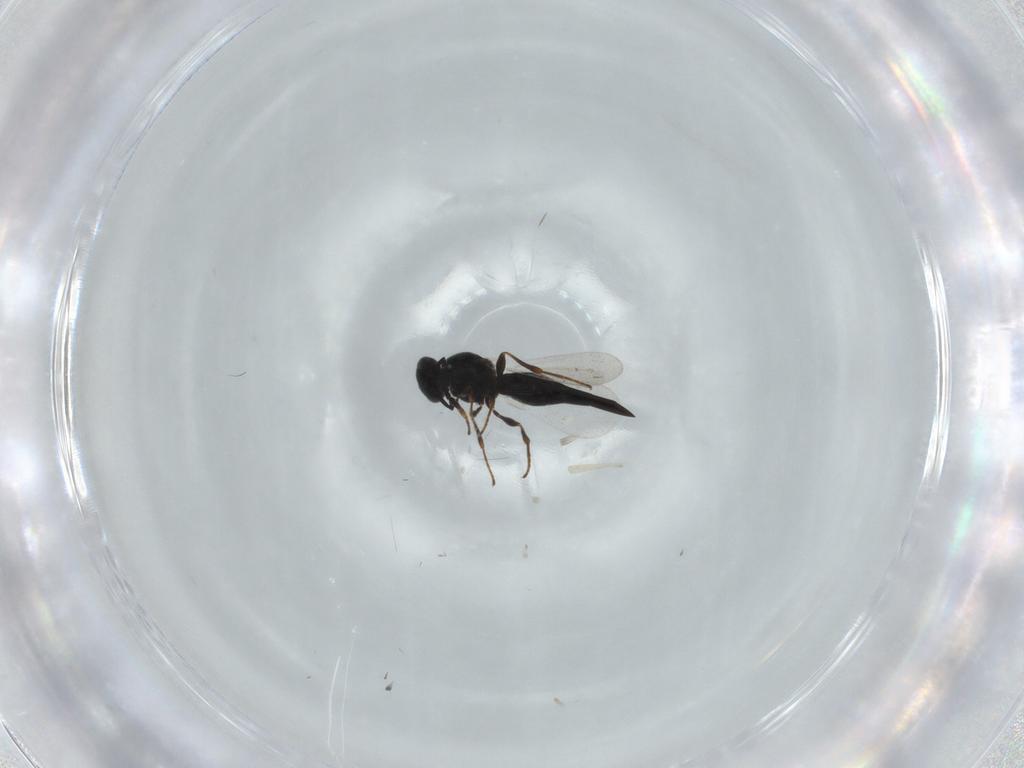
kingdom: Animalia
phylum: Arthropoda
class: Insecta
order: Hymenoptera
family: Platygastridae
